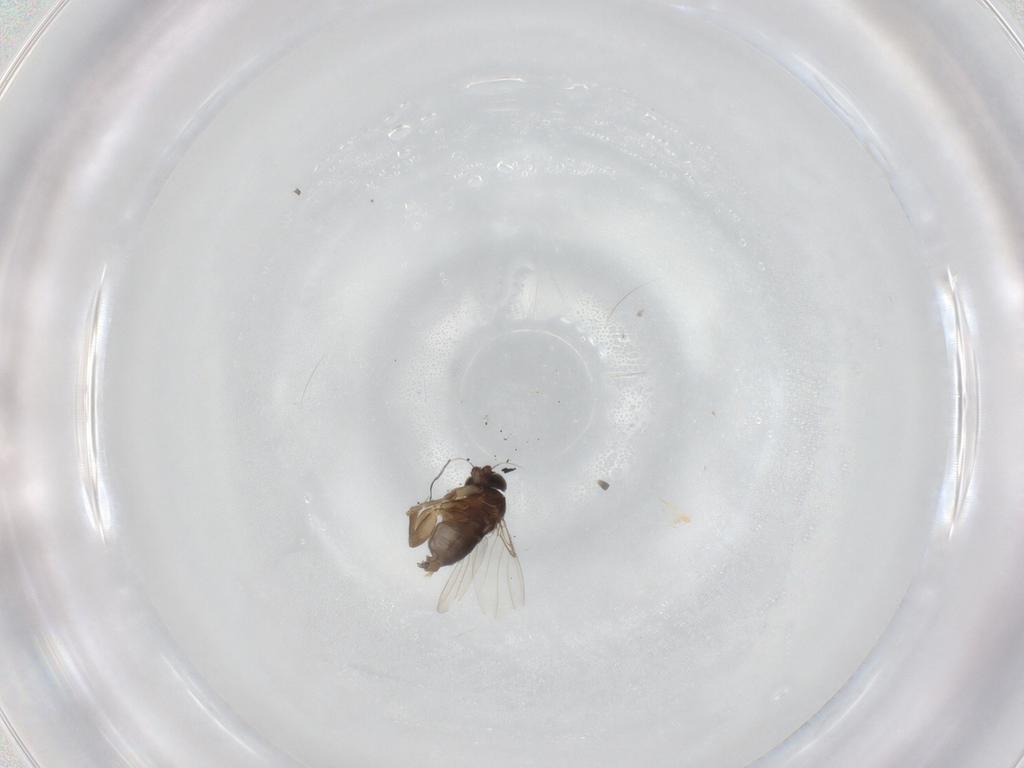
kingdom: Animalia
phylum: Arthropoda
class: Insecta
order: Diptera
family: Phoridae
